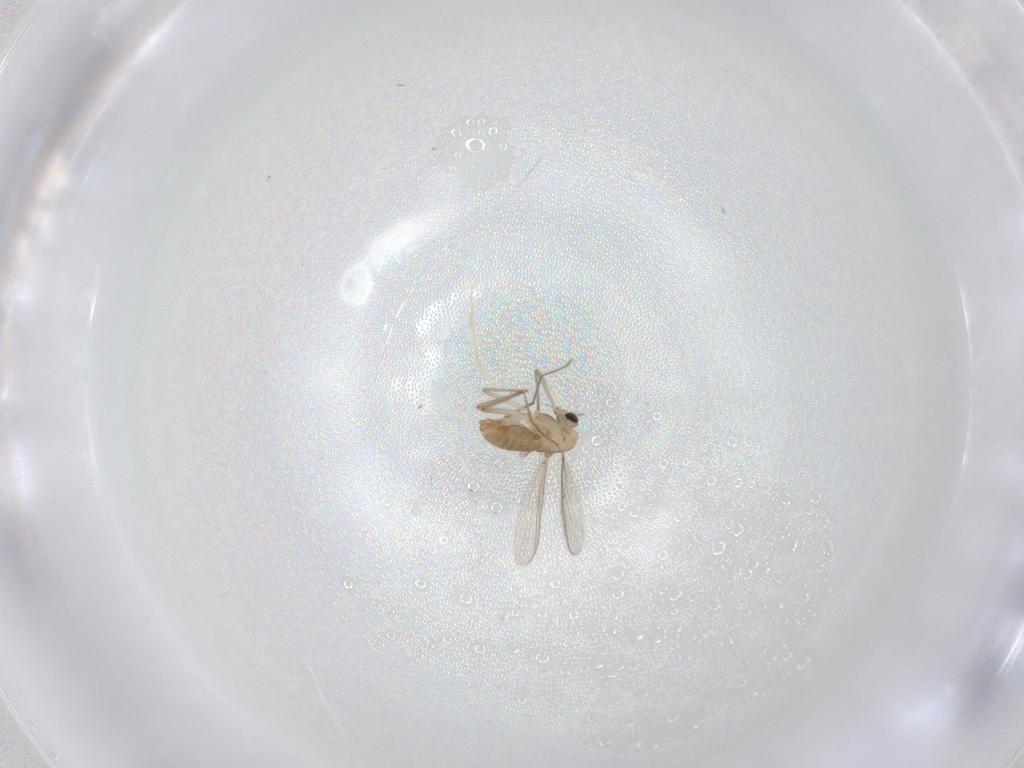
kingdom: Animalia
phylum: Arthropoda
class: Insecta
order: Diptera
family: Chironomidae
